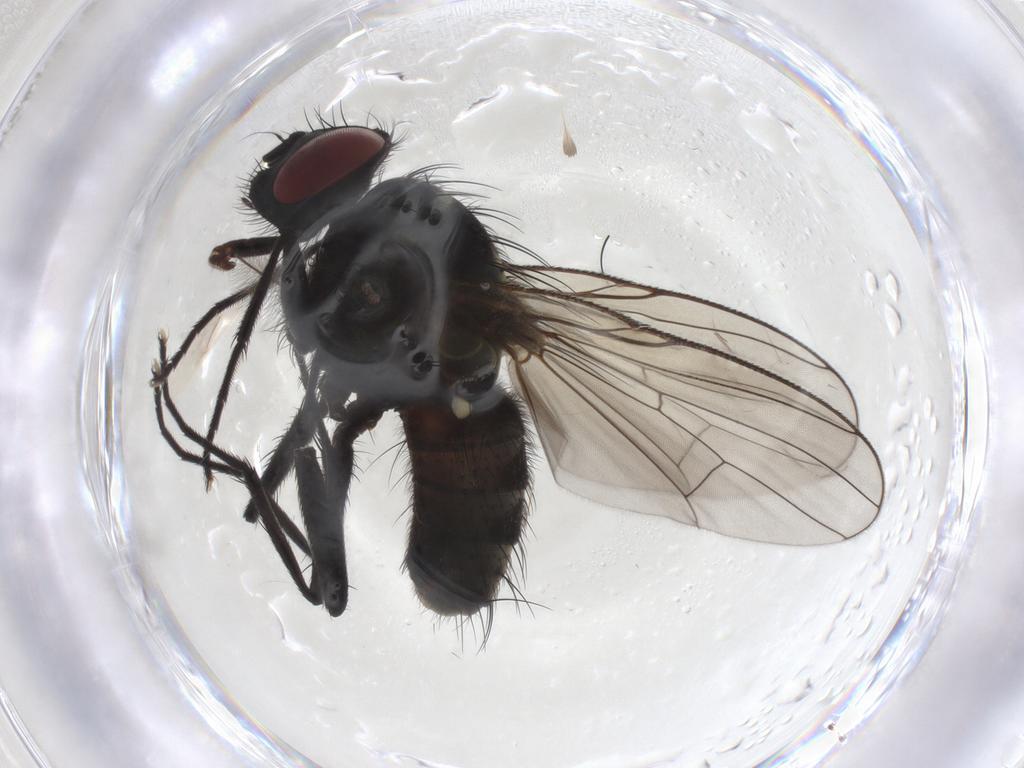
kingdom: Animalia
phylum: Arthropoda
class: Insecta
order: Diptera
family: Muscidae
